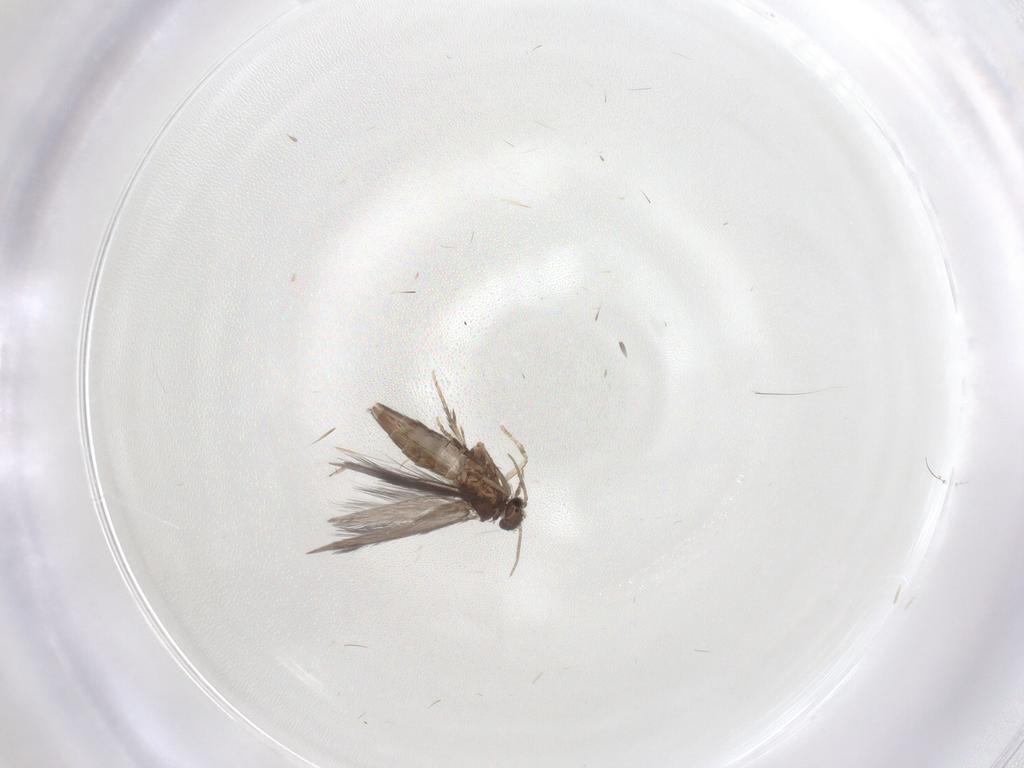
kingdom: Animalia
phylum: Arthropoda
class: Insecta
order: Trichoptera
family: Hydroptilidae
